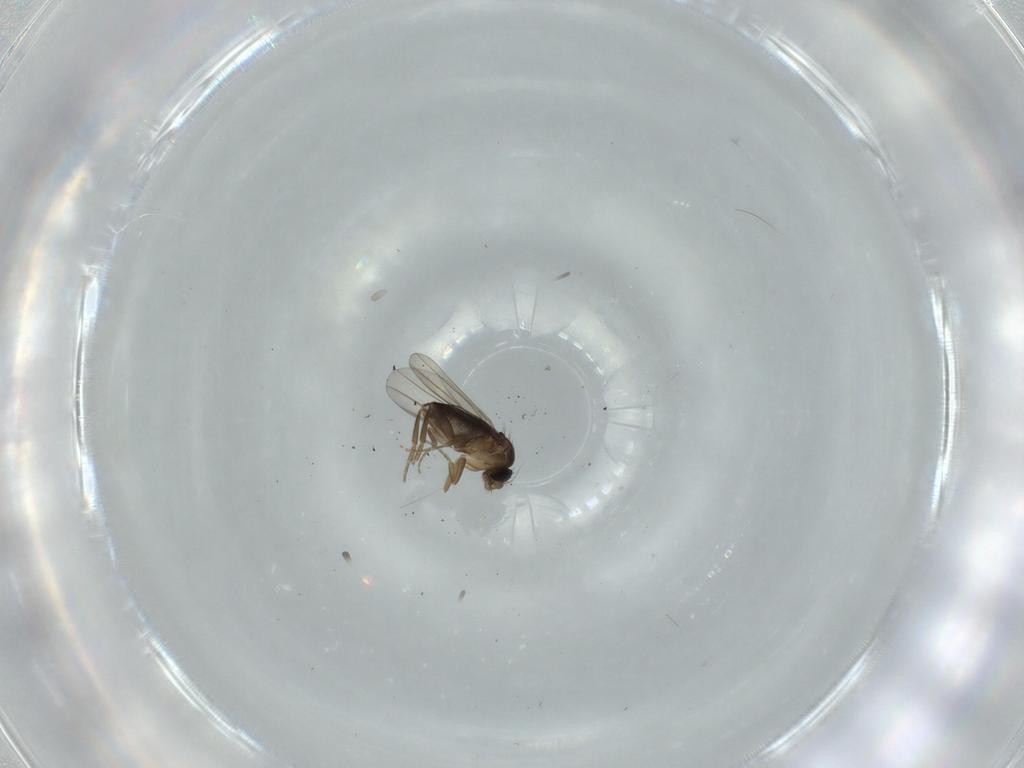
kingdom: Animalia
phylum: Arthropoda
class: Insecta
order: Diptera
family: Phoridae
